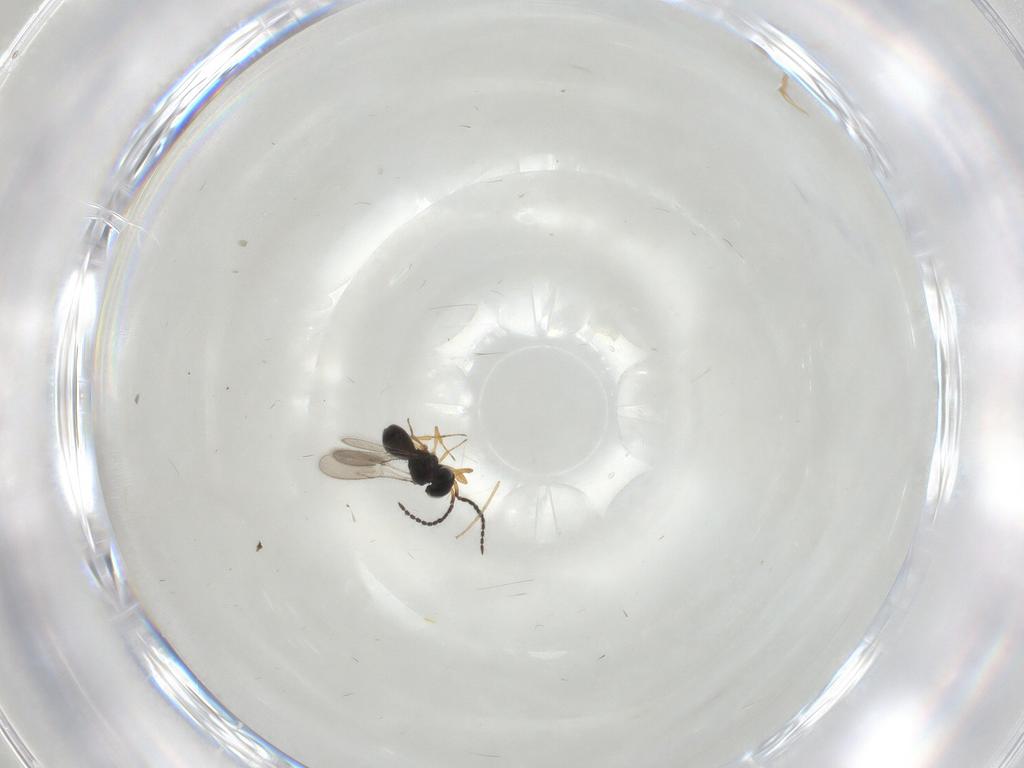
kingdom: Animalia
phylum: Arthropoda
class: Insecta
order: Hymenoptera
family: Scelionidae
